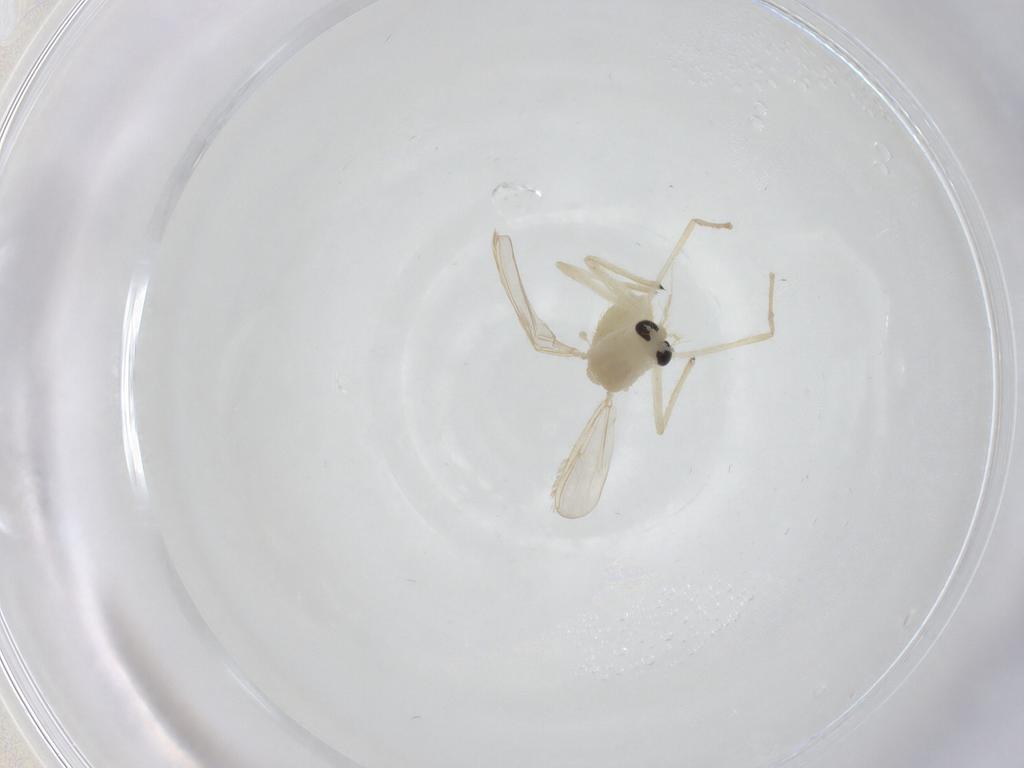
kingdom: Animalia
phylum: Arthropoda
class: Insecta
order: Diptera
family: Chironomidae
